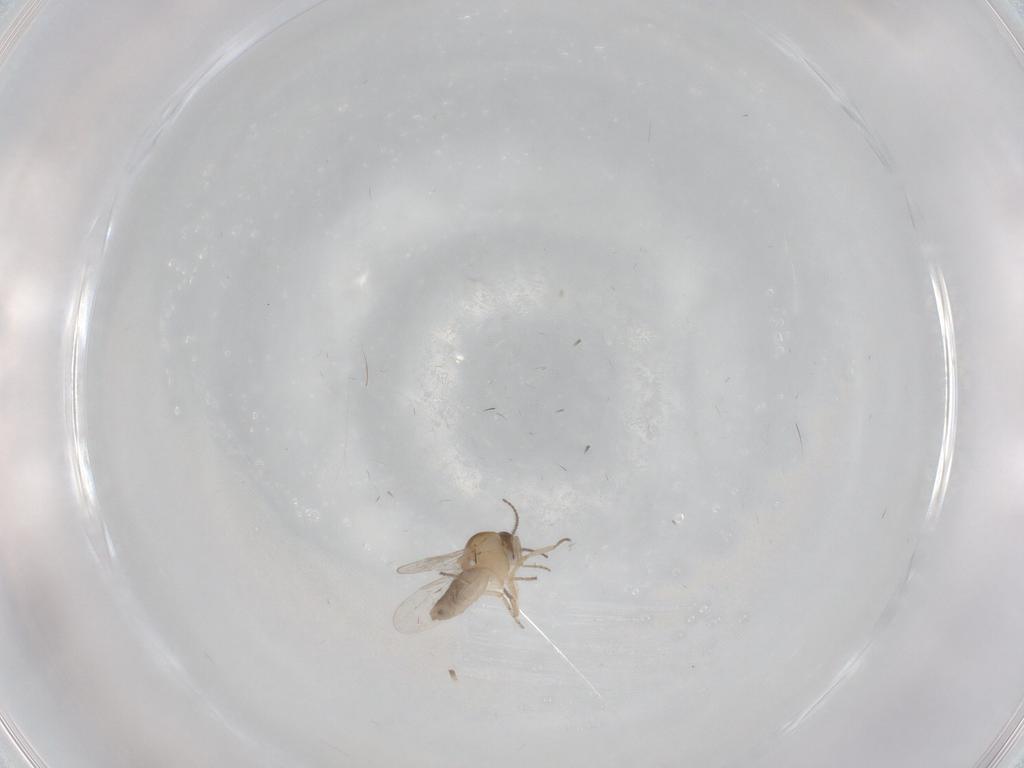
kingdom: Animalia
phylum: Arthropoda
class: Insecta
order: Diptera
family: Ceratopogonidae
